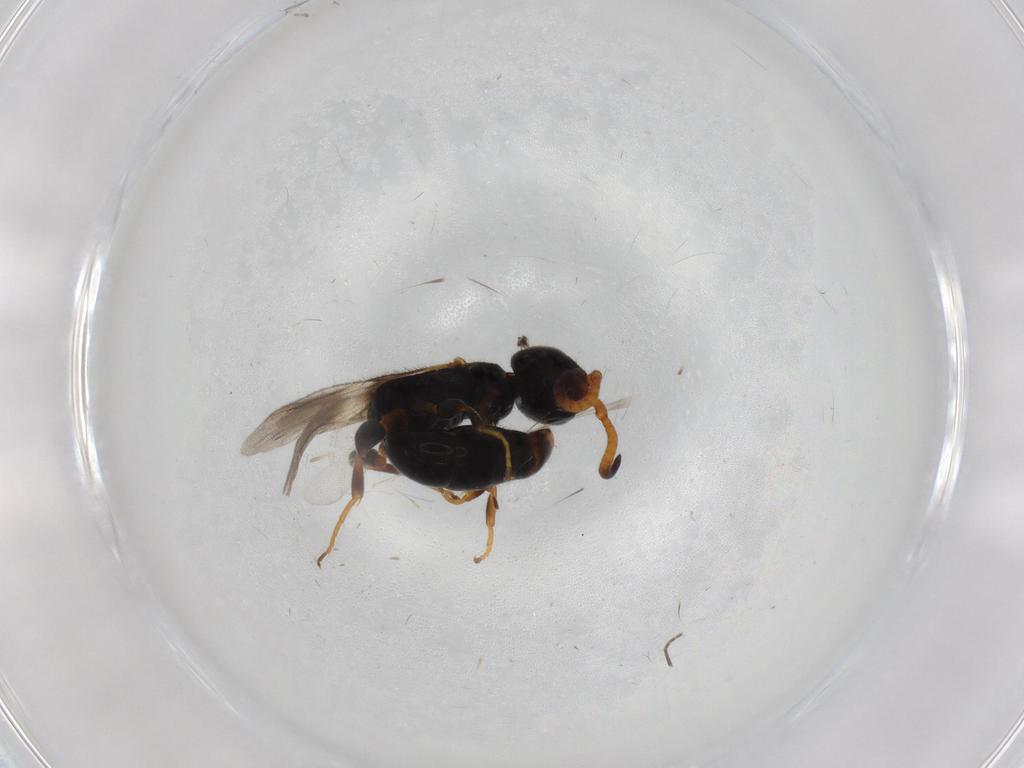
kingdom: Animalia
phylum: Arthropoda
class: Insecta
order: Hymenoptera
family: Bethylidae
